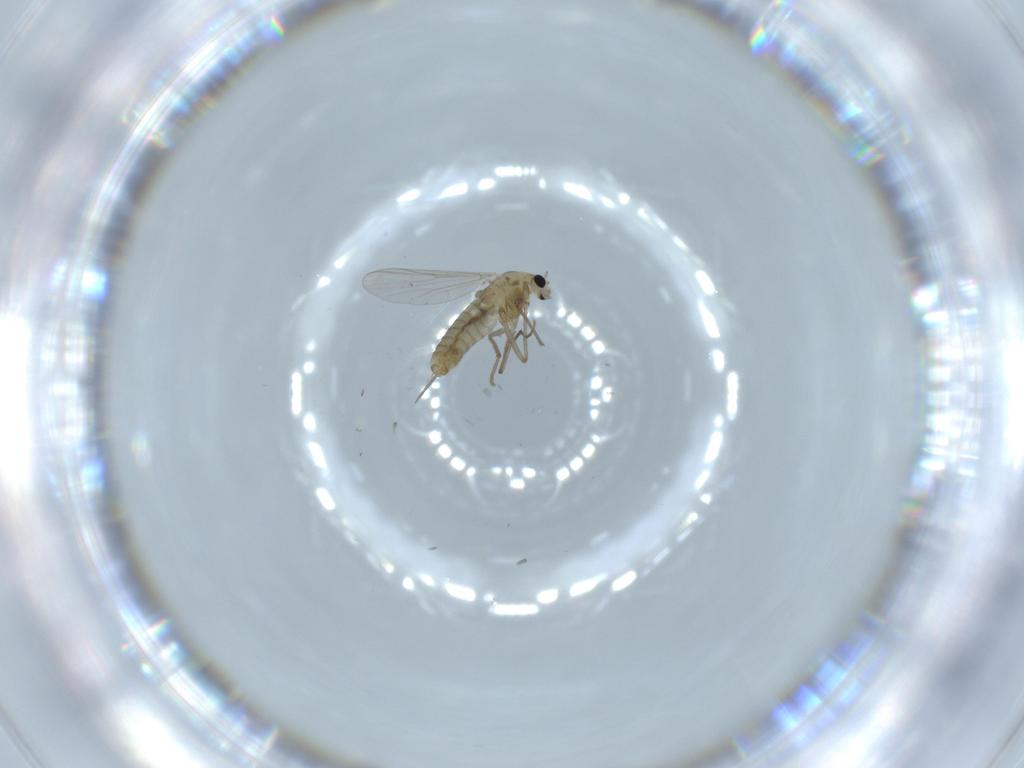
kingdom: Animalia
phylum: Arthropoda
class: Insecta
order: Diptera
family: Chironomidae
